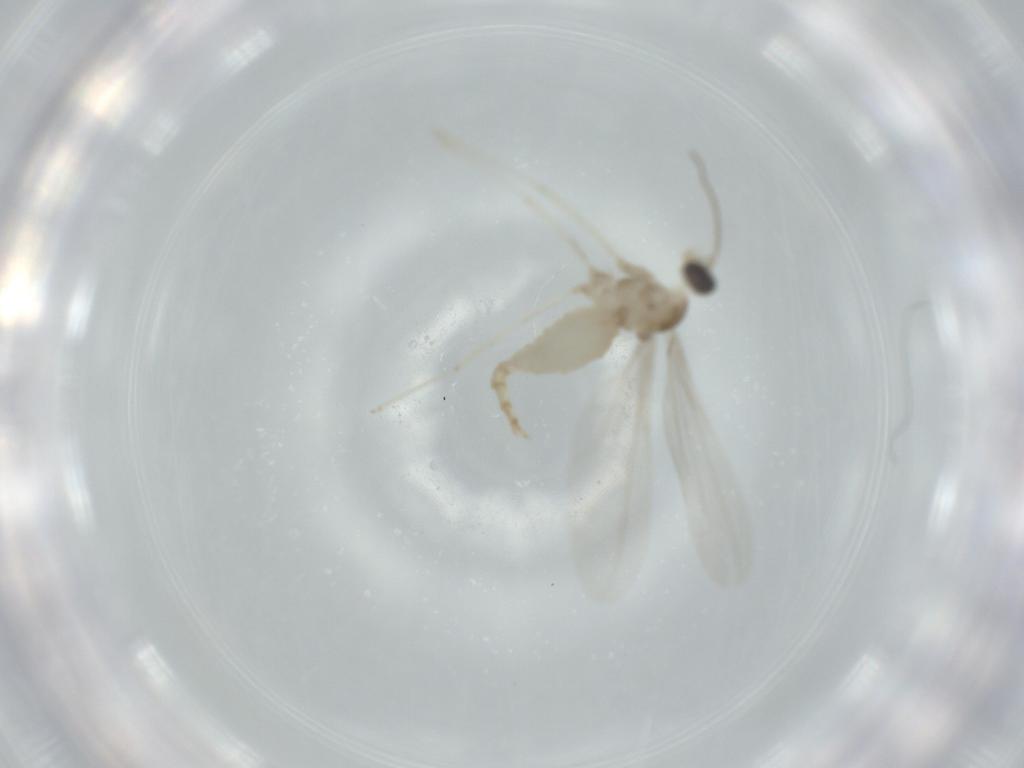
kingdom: Animalia
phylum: Arthropoda
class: Insecta
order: Diptera
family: Cecidomyiidae
